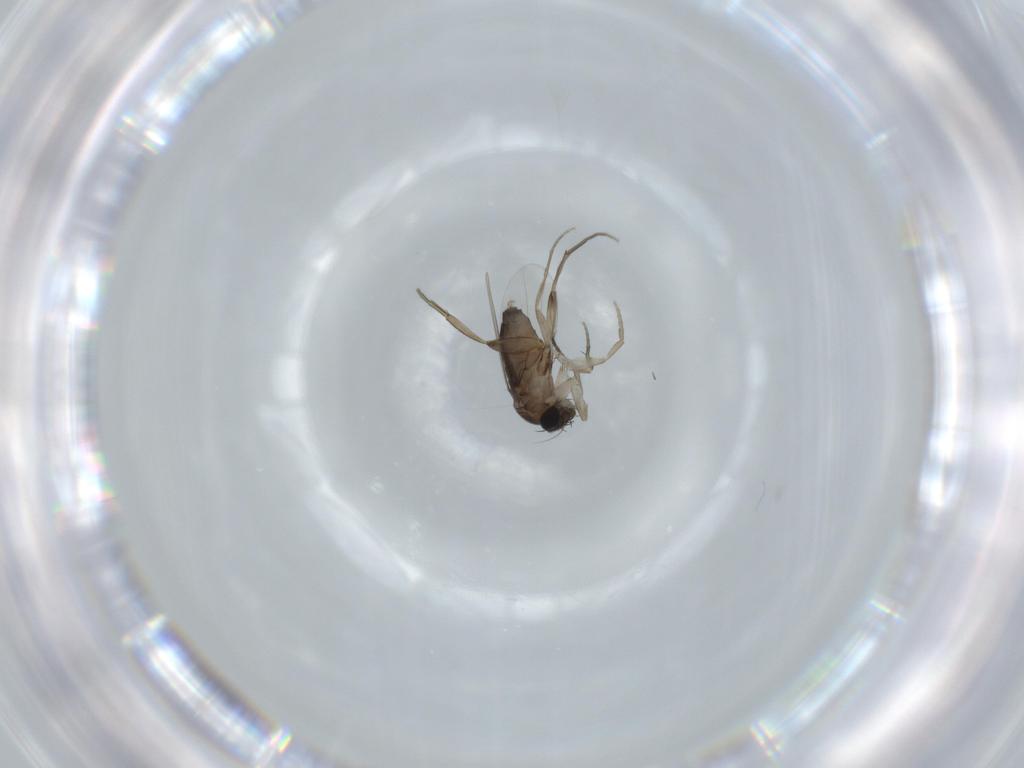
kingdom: Animalia
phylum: Arthropoda
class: Insecta
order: Diptera
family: Phoridae
